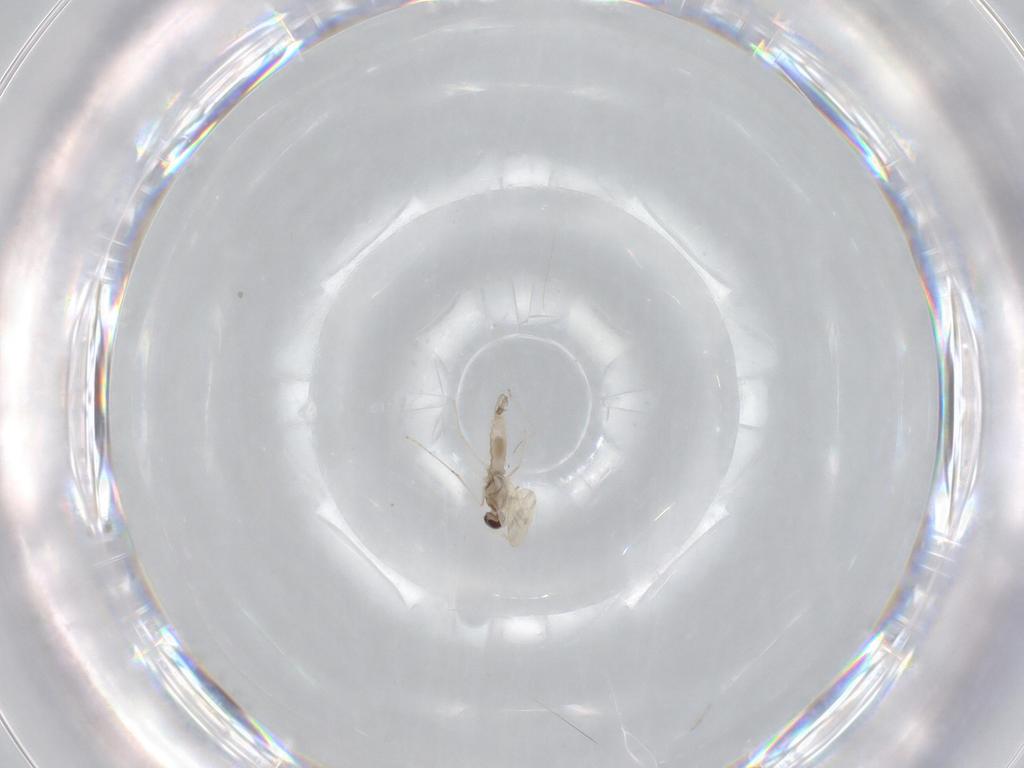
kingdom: Animalia
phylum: Arthropoda
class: Insecta
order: Diptera
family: Cecidomyiidae
